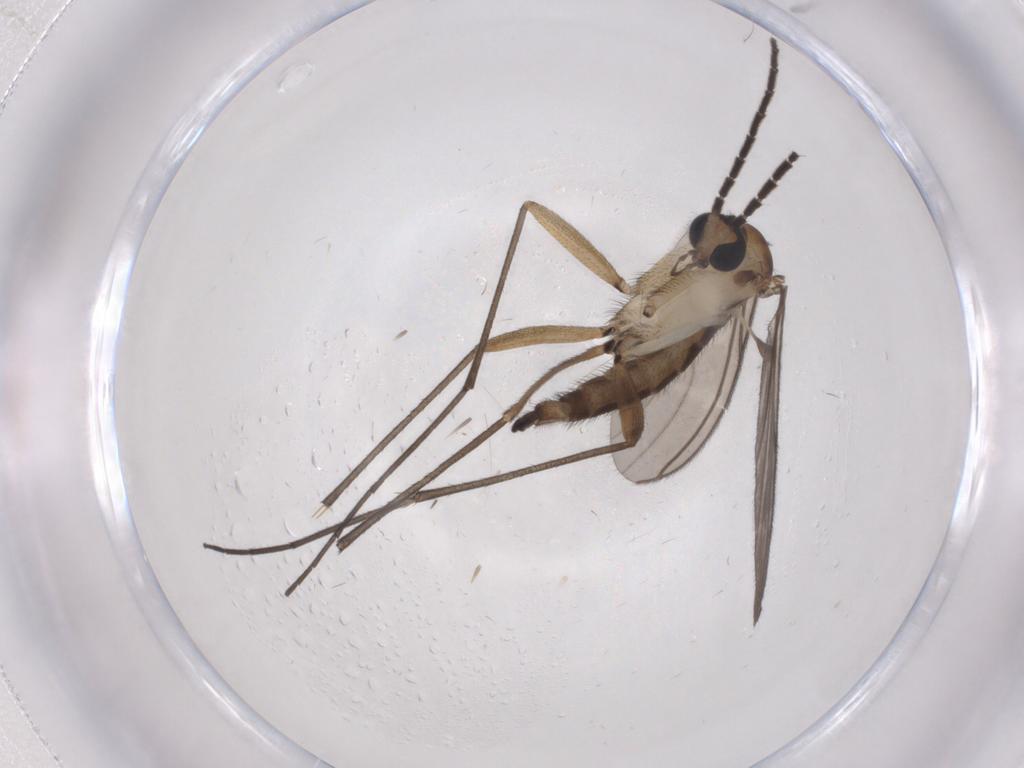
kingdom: Animalia
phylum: Arthropoda
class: Insecta
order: Diptera
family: Sciaridae
